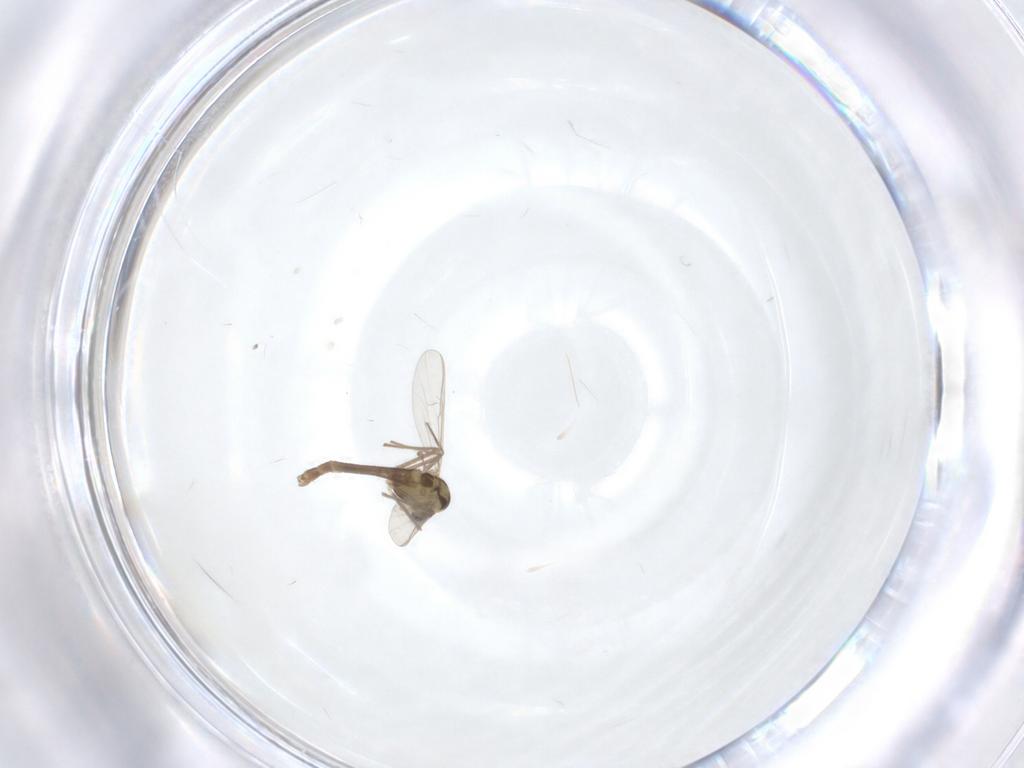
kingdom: Animalia
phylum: Arthropoda
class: Insecta
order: Diptera
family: Chironomidae
